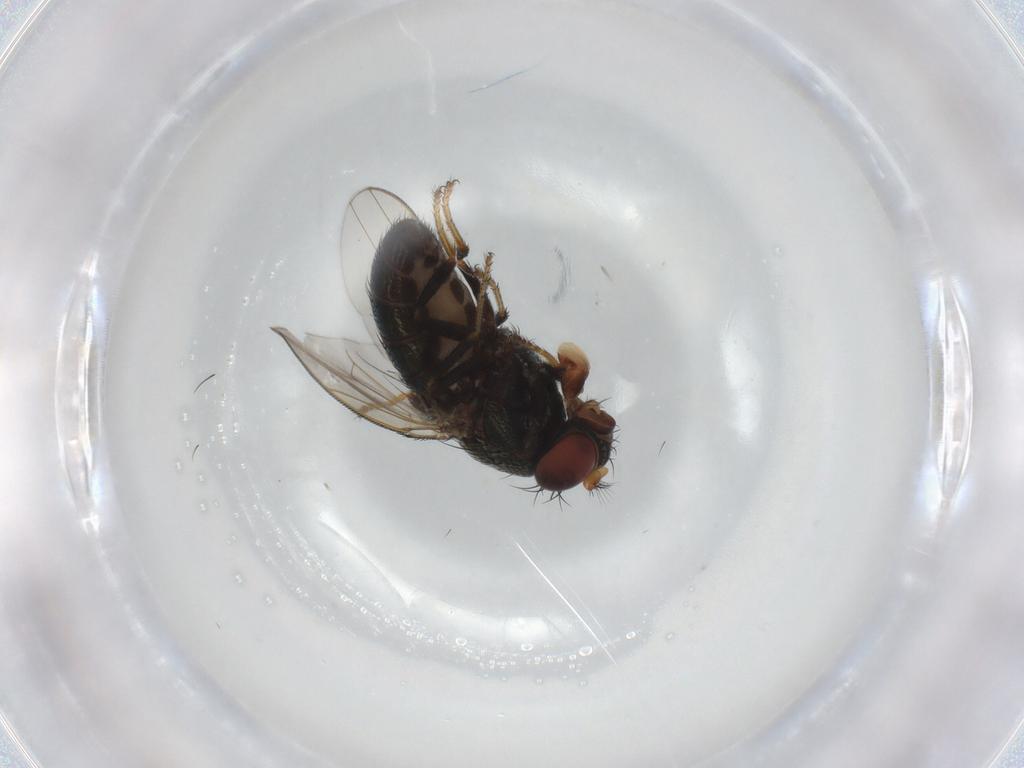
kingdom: Animalia
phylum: Arthropoda
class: Insecta
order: Diptera
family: Ephydridae
